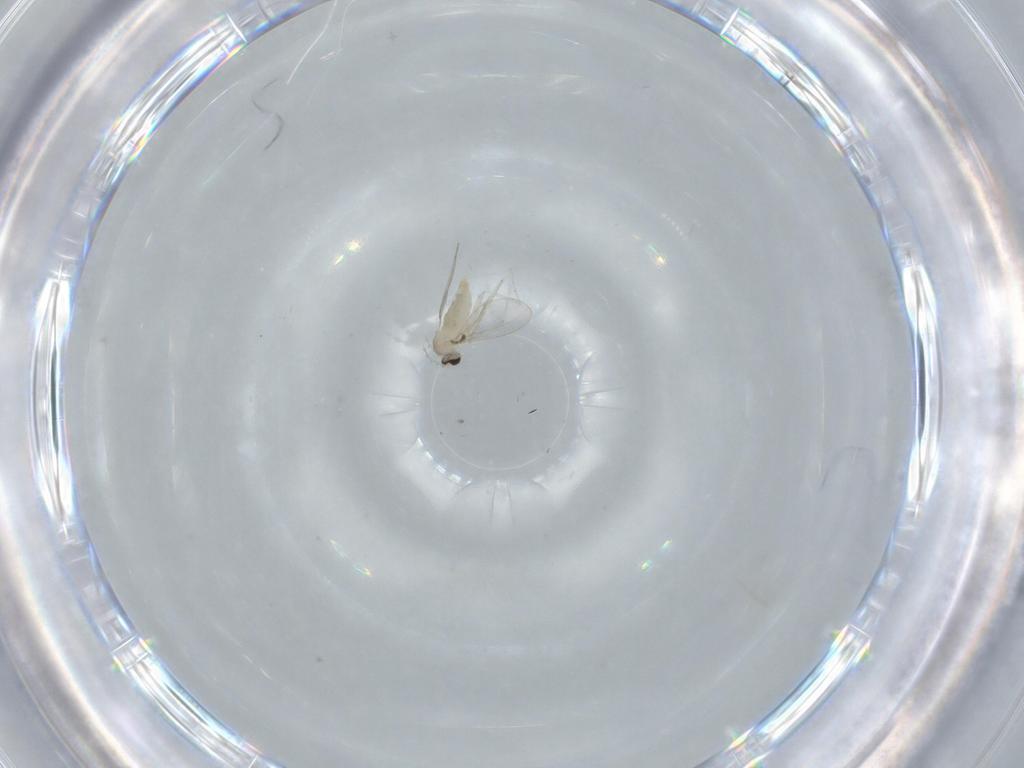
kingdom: Animalia
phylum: Arthropoda
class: Insecta
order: Diptera
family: Cecidomyiidae
